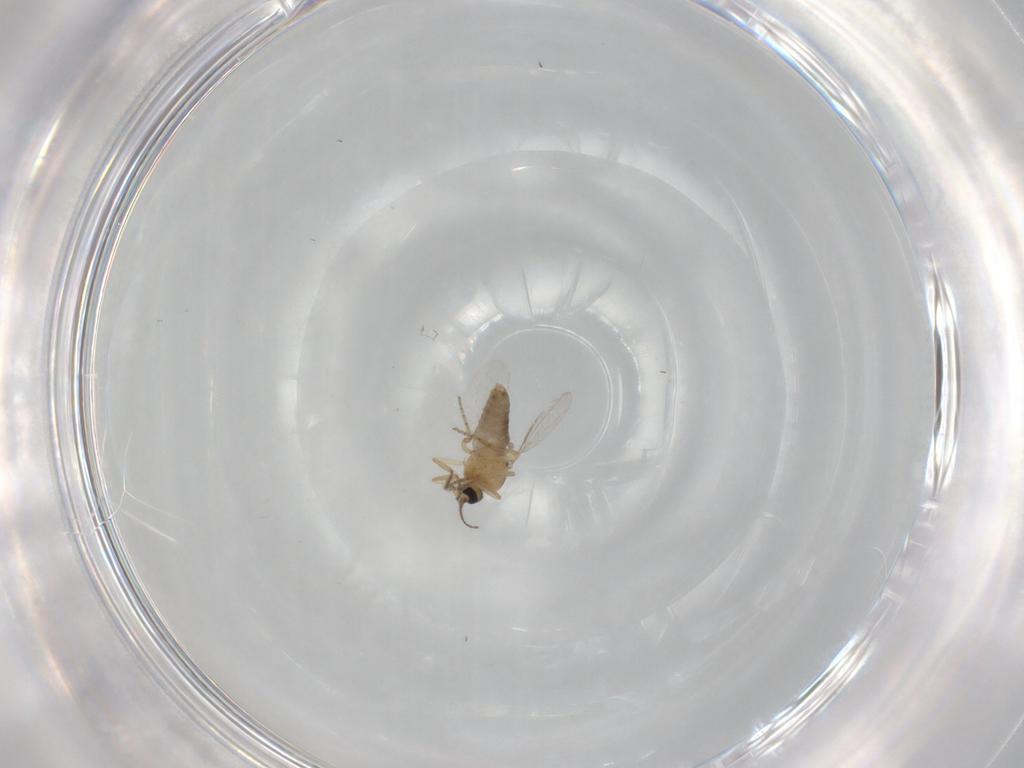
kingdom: Animalia
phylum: Arthropoda
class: Insecta
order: Diptera
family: Ceratopogonidae
